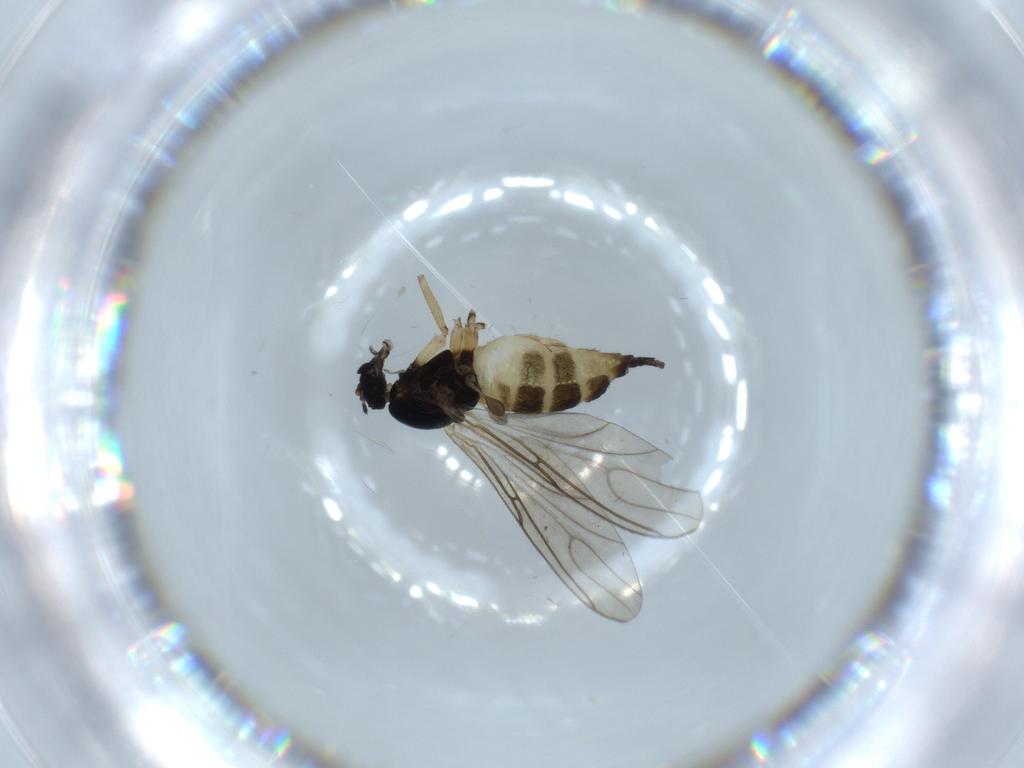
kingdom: Animalia
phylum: Arthropoda
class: Insecta
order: Diptera
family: Sciaridae
